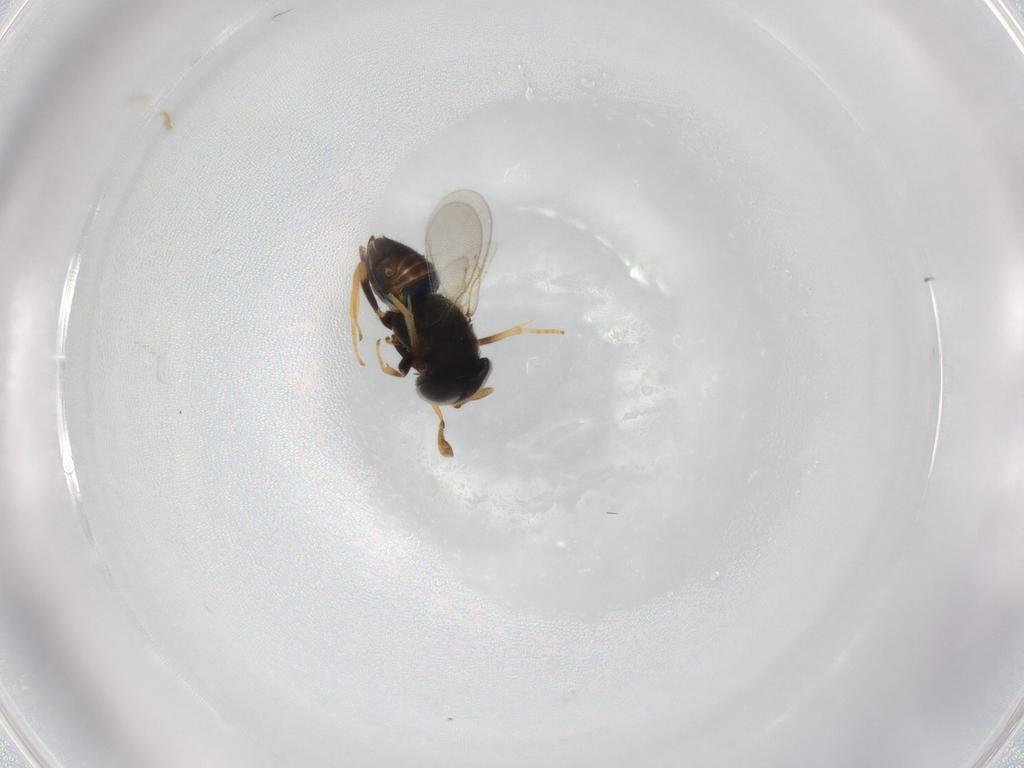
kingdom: Animalia
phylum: Arthropoda
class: Insecta
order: Hymenoptera
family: Encyrtidae
